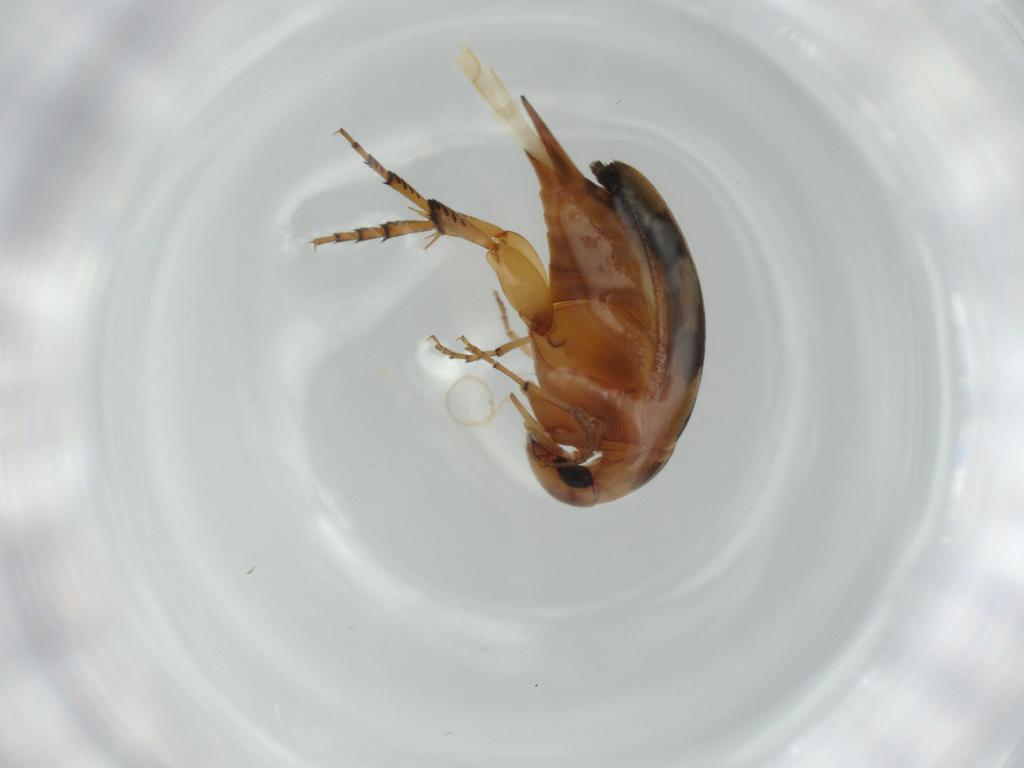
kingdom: Animalia
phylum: Arthropoda
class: Insecta
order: Coleoptera
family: Mordellidae
